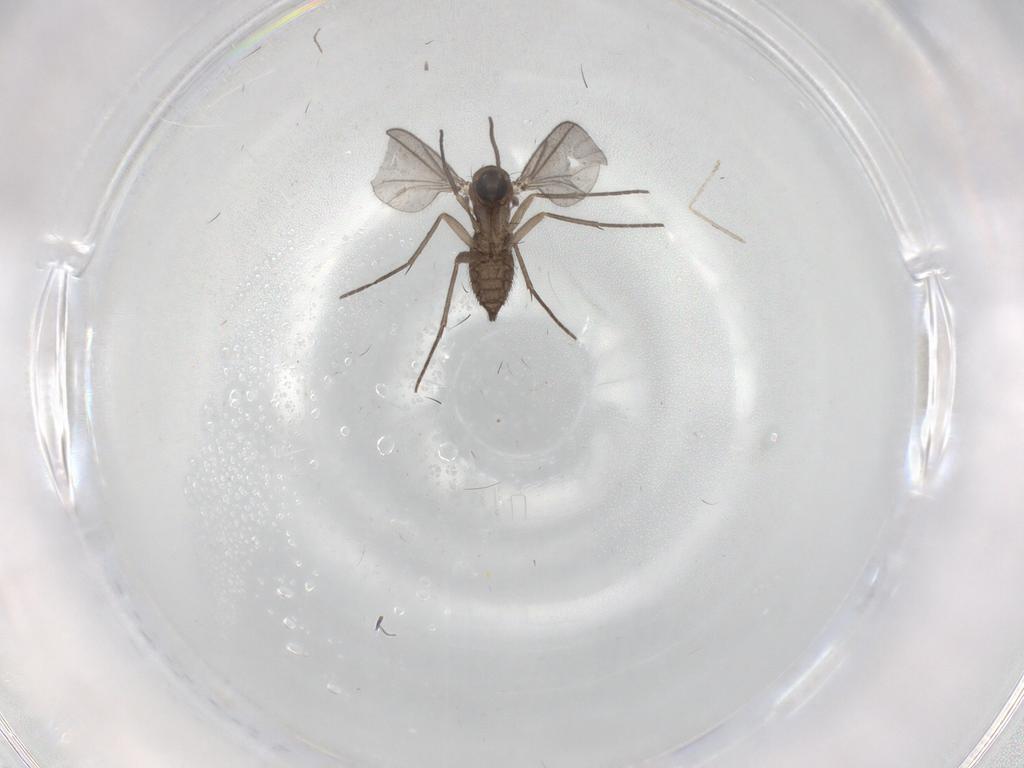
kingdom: Animalia
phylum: Arthropoda
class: Insecta
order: Diptera
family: Sciaridae
